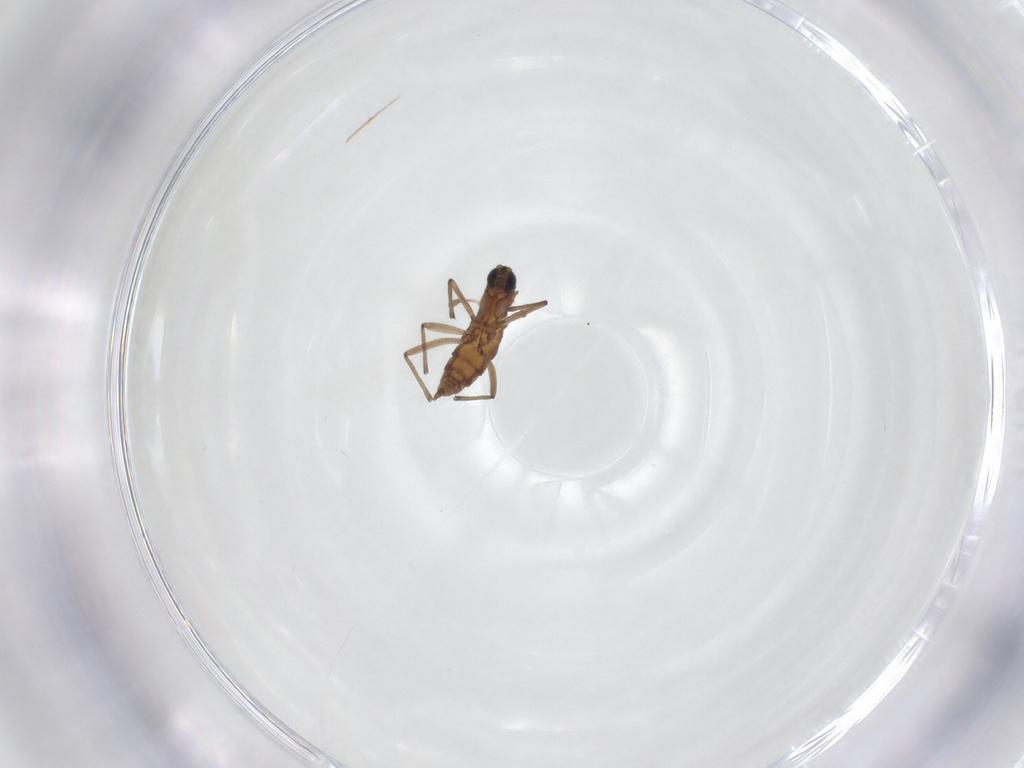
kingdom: Animalia
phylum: Arthropoda
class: Insecta
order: Diptera
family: Sciaridae
